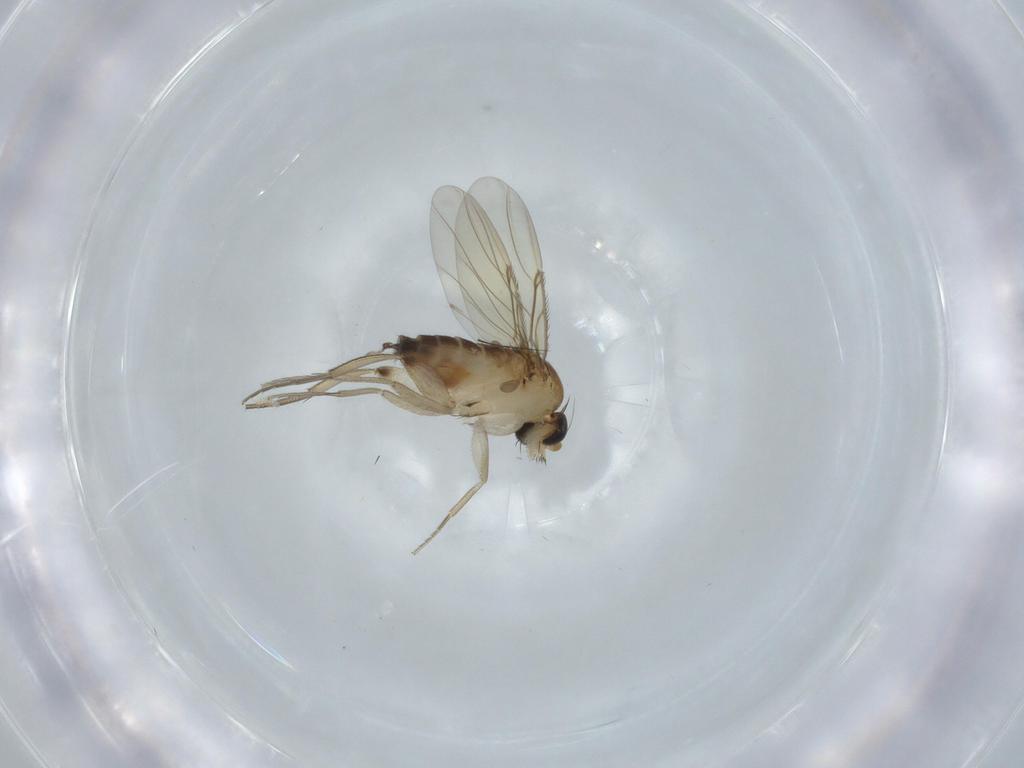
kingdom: Animalia
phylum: Arthropoda
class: Insecta
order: Diptera
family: Phoridae
